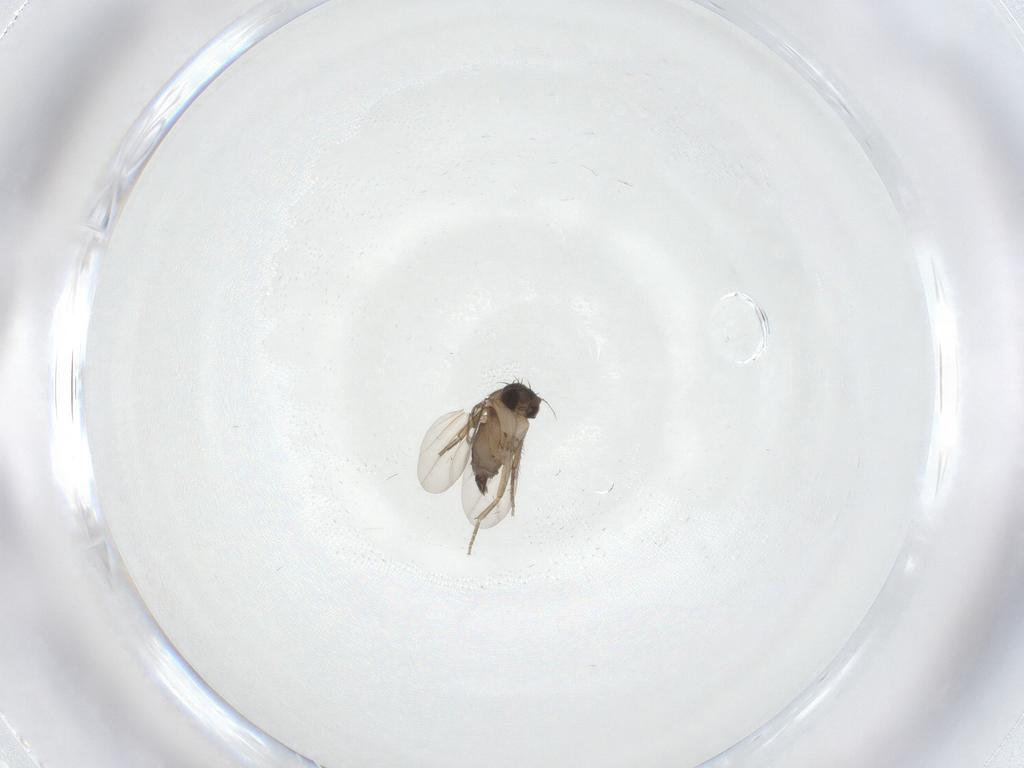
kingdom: Animalia
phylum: Arthropoda
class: Insecta
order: Diptera
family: Phoridae
